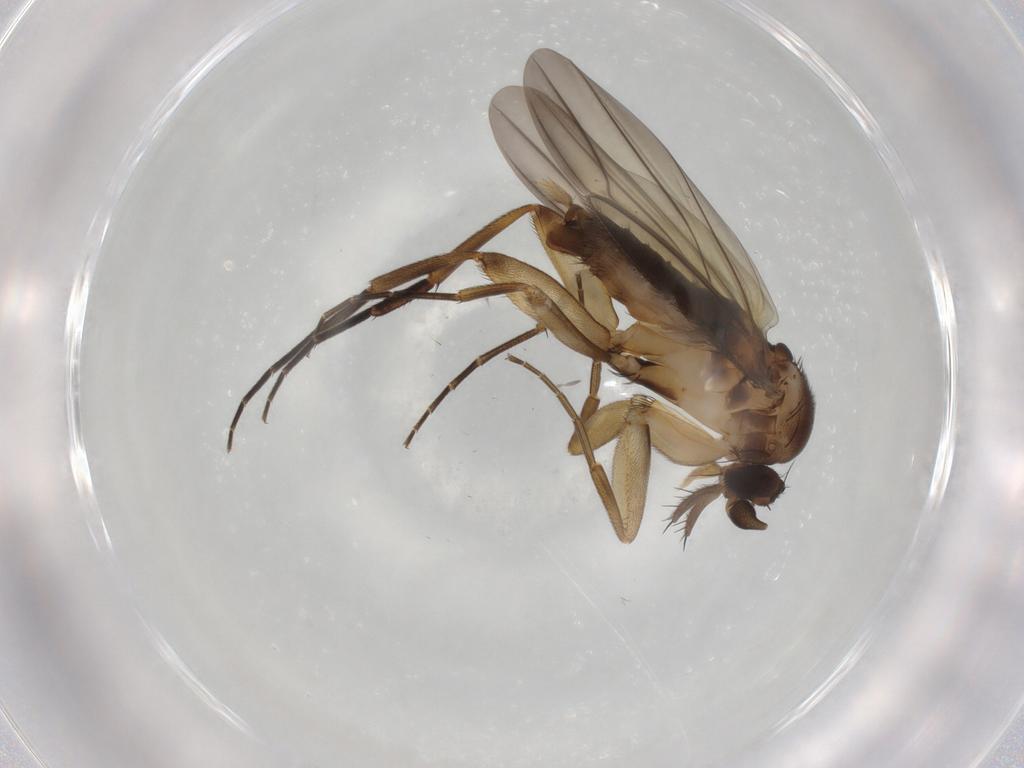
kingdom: Animalia
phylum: Arthropoda
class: Insecta
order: Diptera
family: Phoridae
